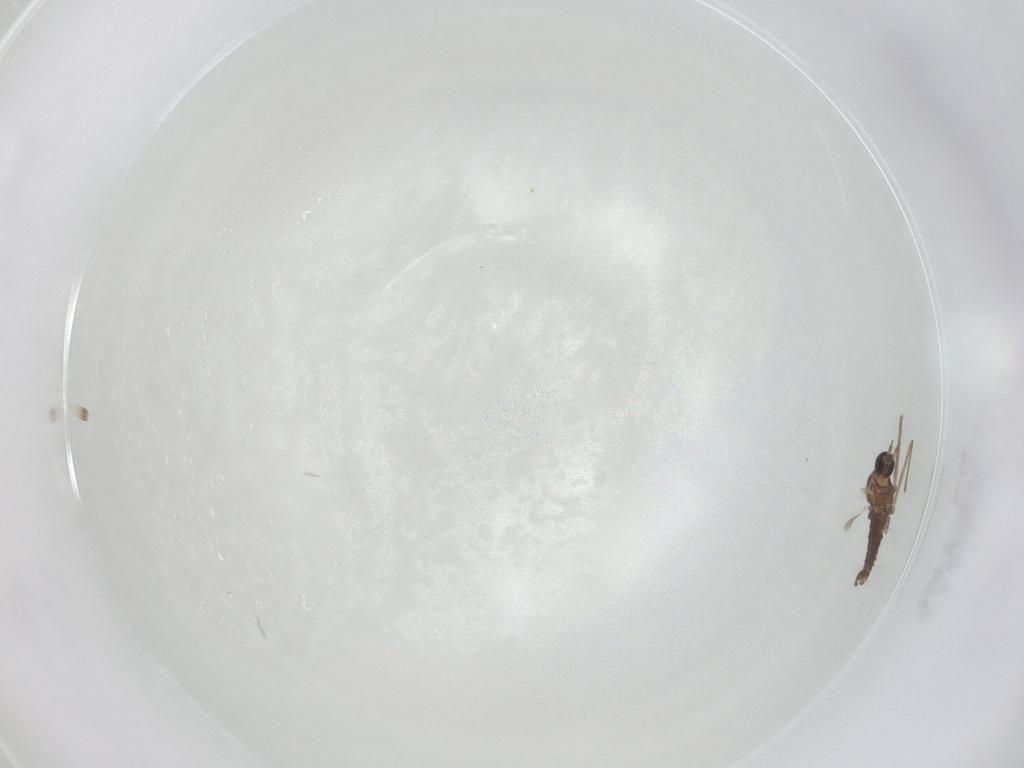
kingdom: Animalia
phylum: Arthropoda
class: Insecta
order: Diptera
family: Cecidomyiidae
